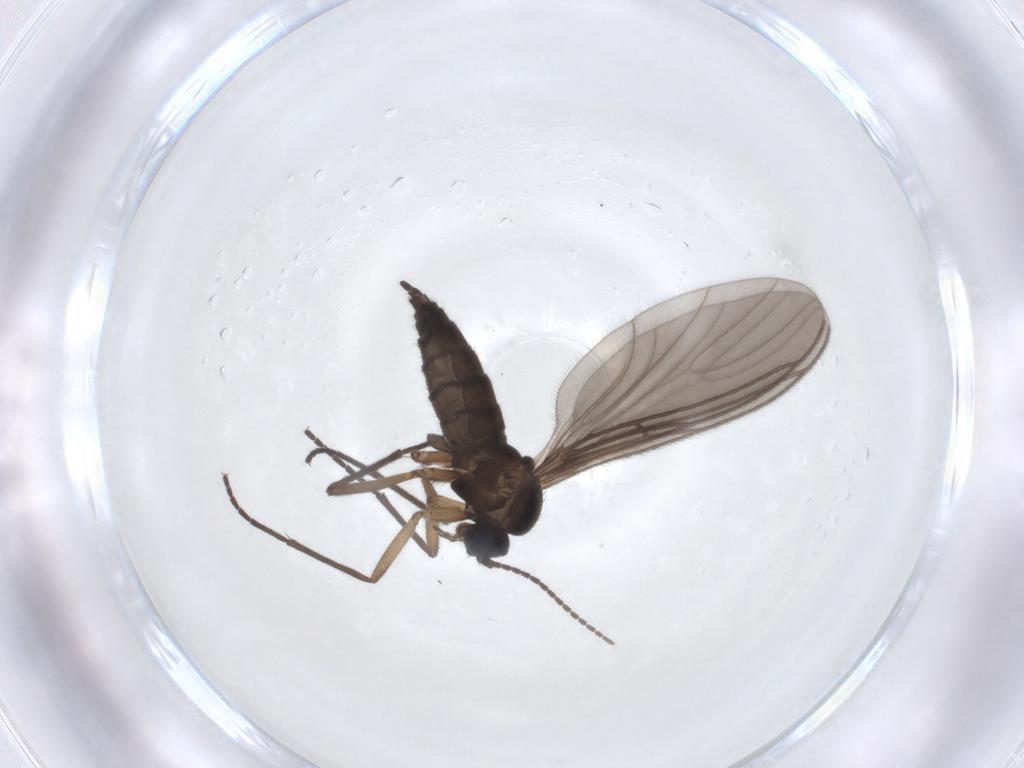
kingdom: Animalia
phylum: Arthropoda
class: Insecta
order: Diptera
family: Sciaridae
